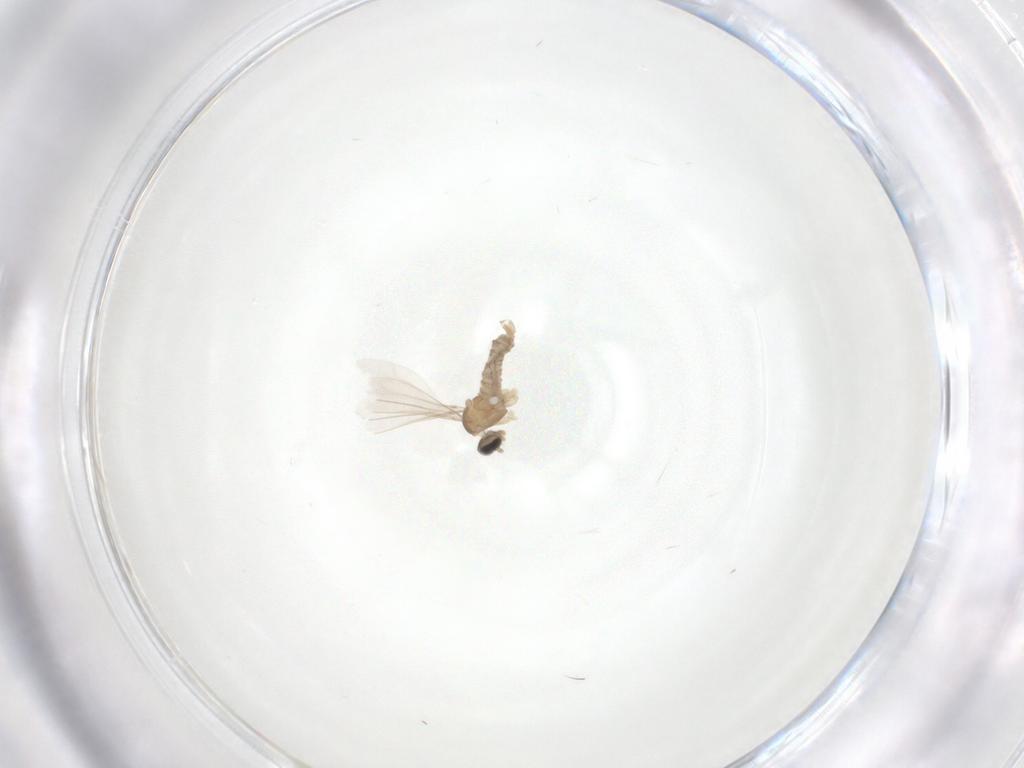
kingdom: Animalia
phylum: Arthropoda
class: Insecta
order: Diptera
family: Cecidomyiidae
